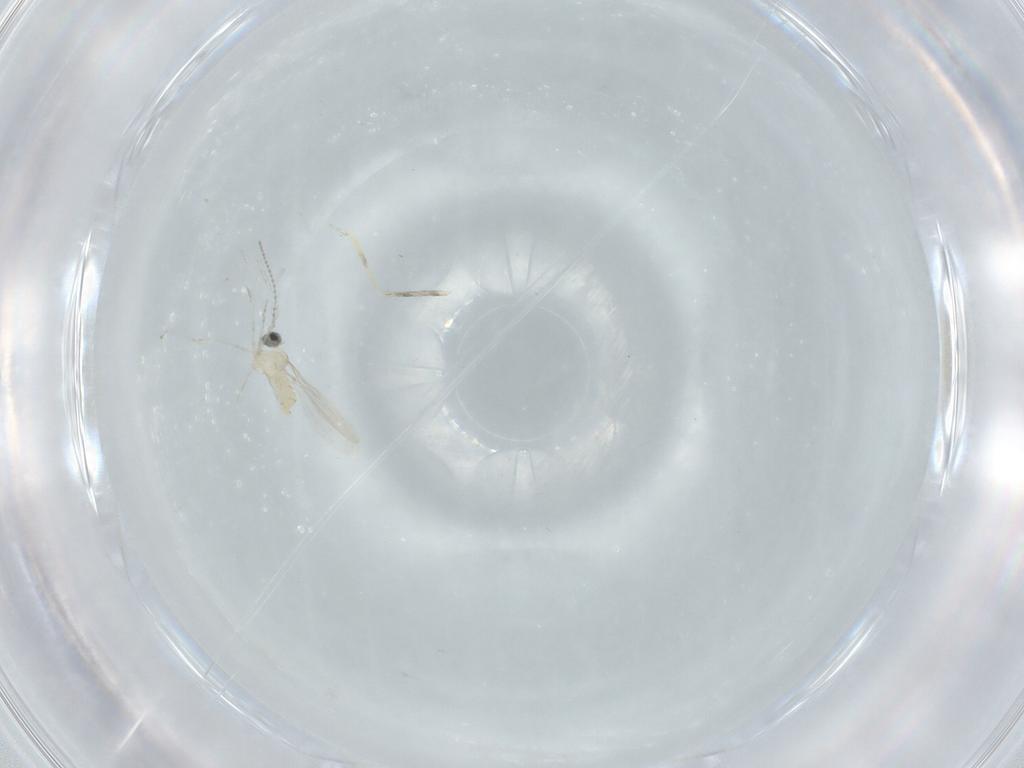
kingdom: Animalia
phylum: Arthropoda
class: Insecta
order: Diptera
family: Cecidomyiidae
